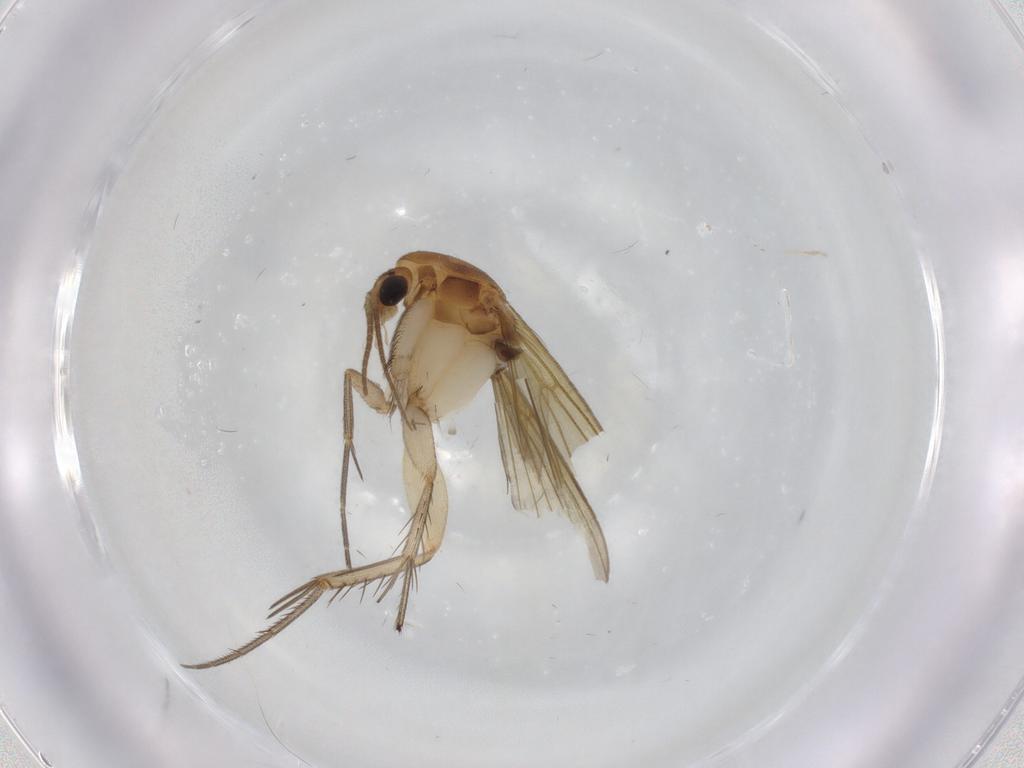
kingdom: Animalia
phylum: Arthropoda
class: Insecta
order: Diptera
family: Mycetophilidae
